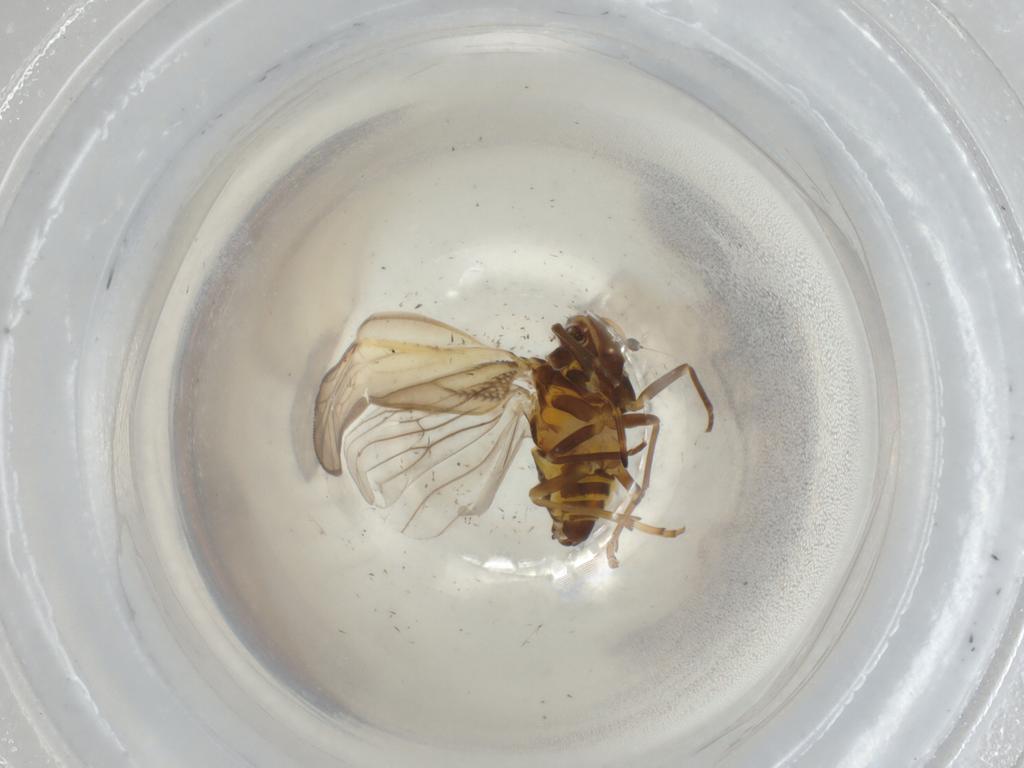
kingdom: Animalia
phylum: Arthropoda
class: Insecta
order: Hemiptera
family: Meenoplidae
